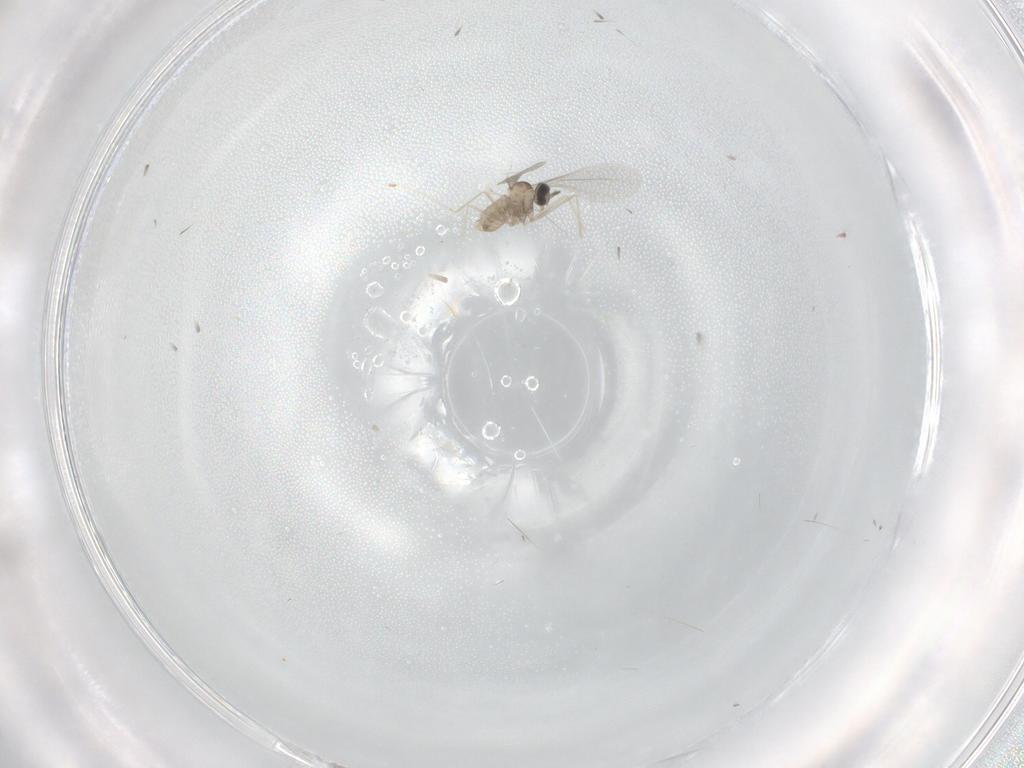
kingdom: Animalia
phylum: Arthropoda
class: Insecta
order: Diptera
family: Cecidomyiidae
